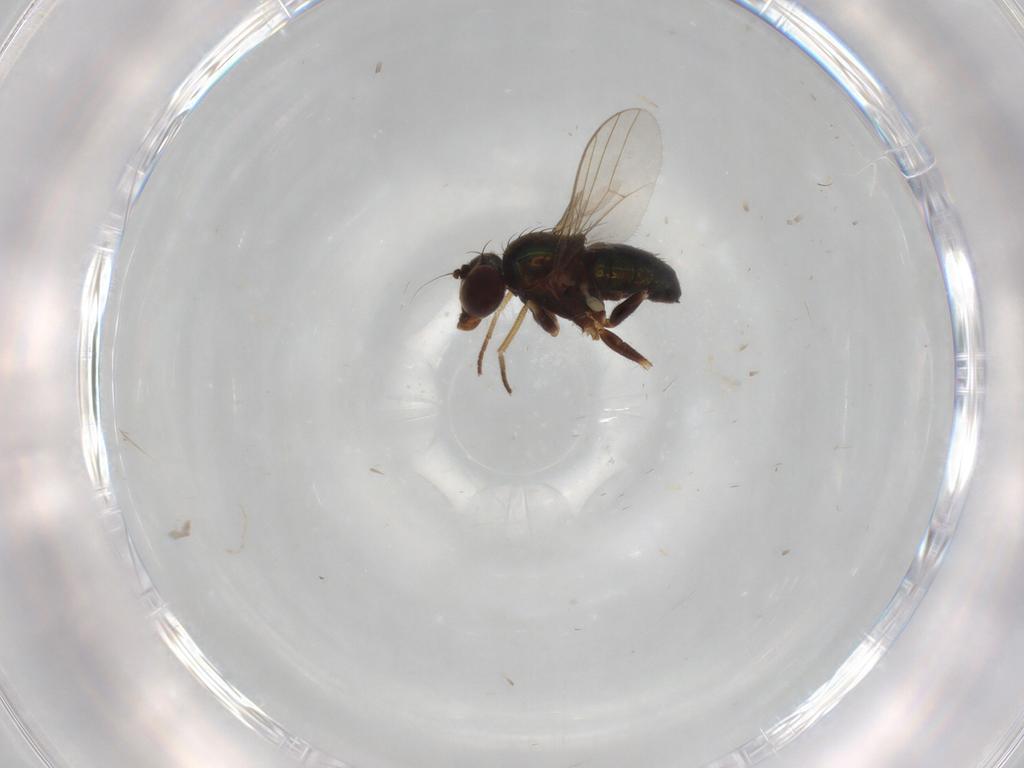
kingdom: Animalia
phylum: Arthropoda
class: Insecta
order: Diptera
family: Dolichopodidae
